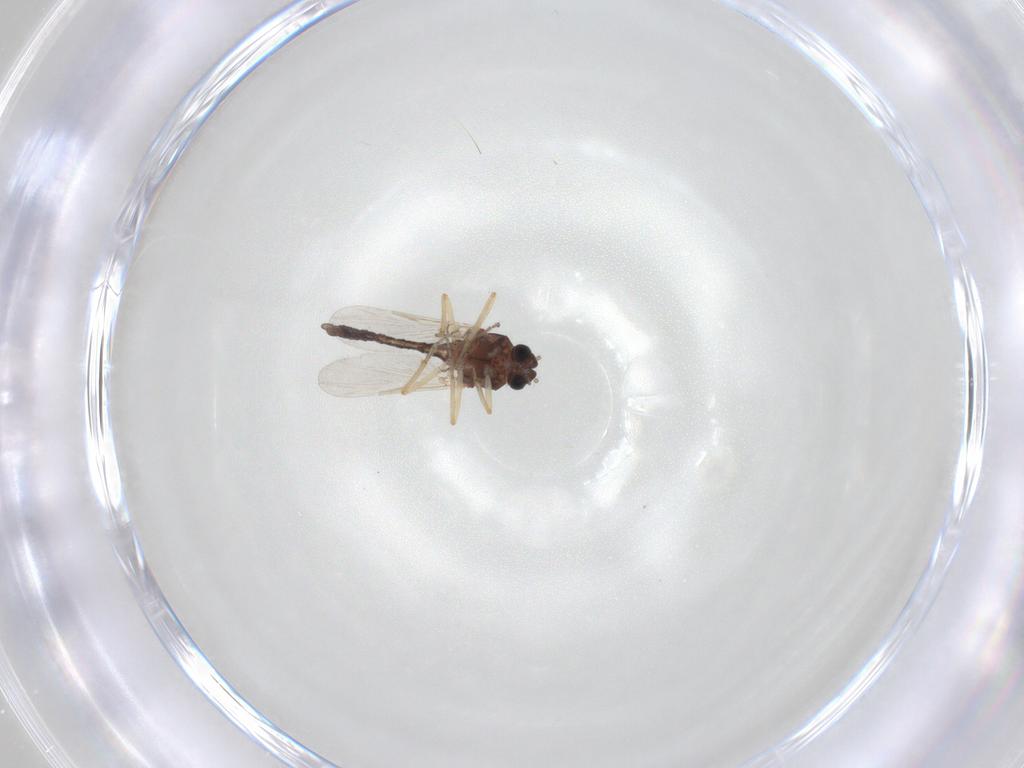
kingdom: Animalia
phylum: Arthropoda
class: Insecta
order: Diptera
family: Ceratopogonidae
